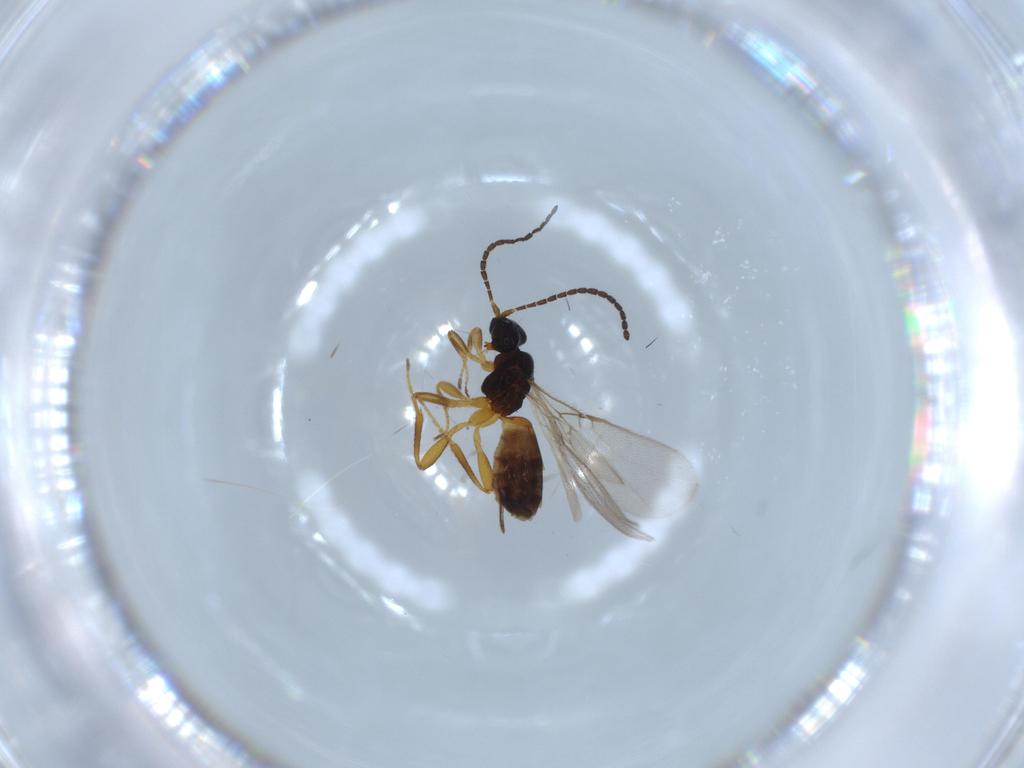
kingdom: Animalia
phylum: Arthropoda
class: Insecta
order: Hymenoptera
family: Braconidae
